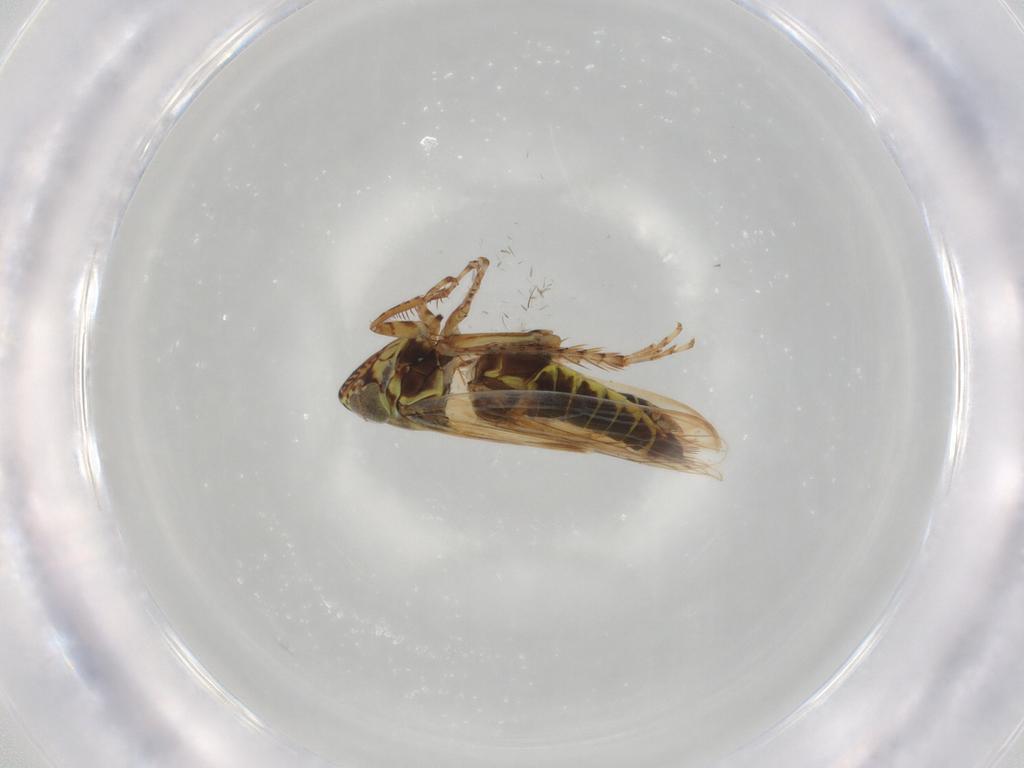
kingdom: Animalia
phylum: Arthropoda
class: Insecta
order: Hemiptera
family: Cicadellidae
